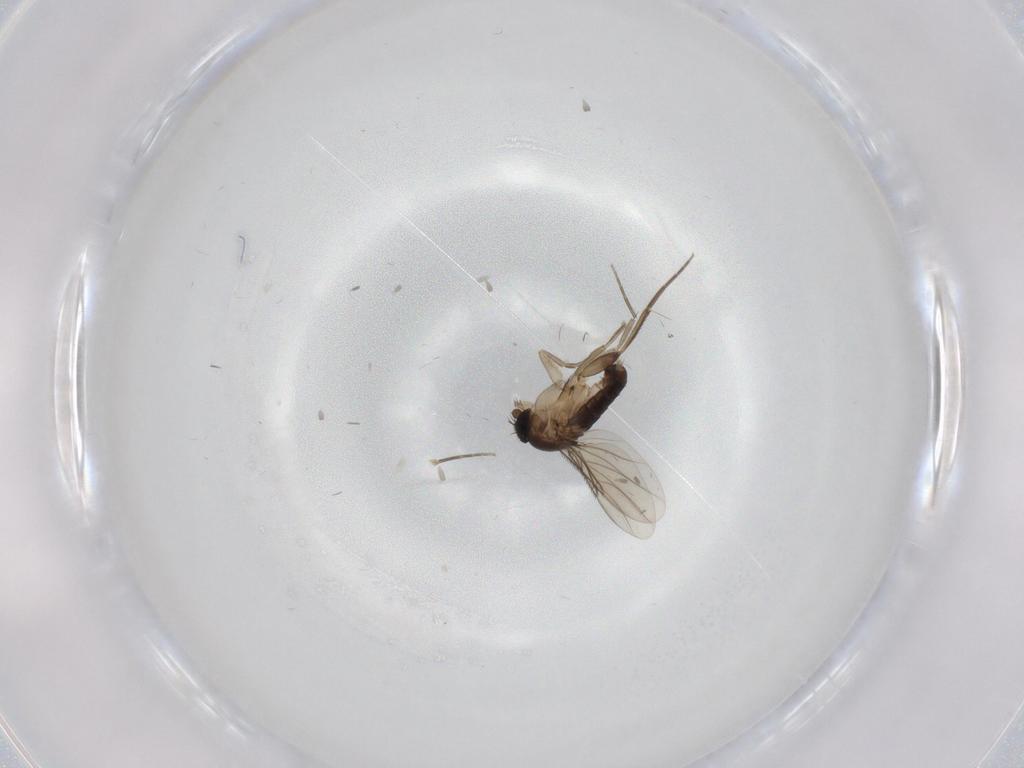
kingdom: Animalia
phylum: Arthropoda
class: Insecta
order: Diptera
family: Phoridae
